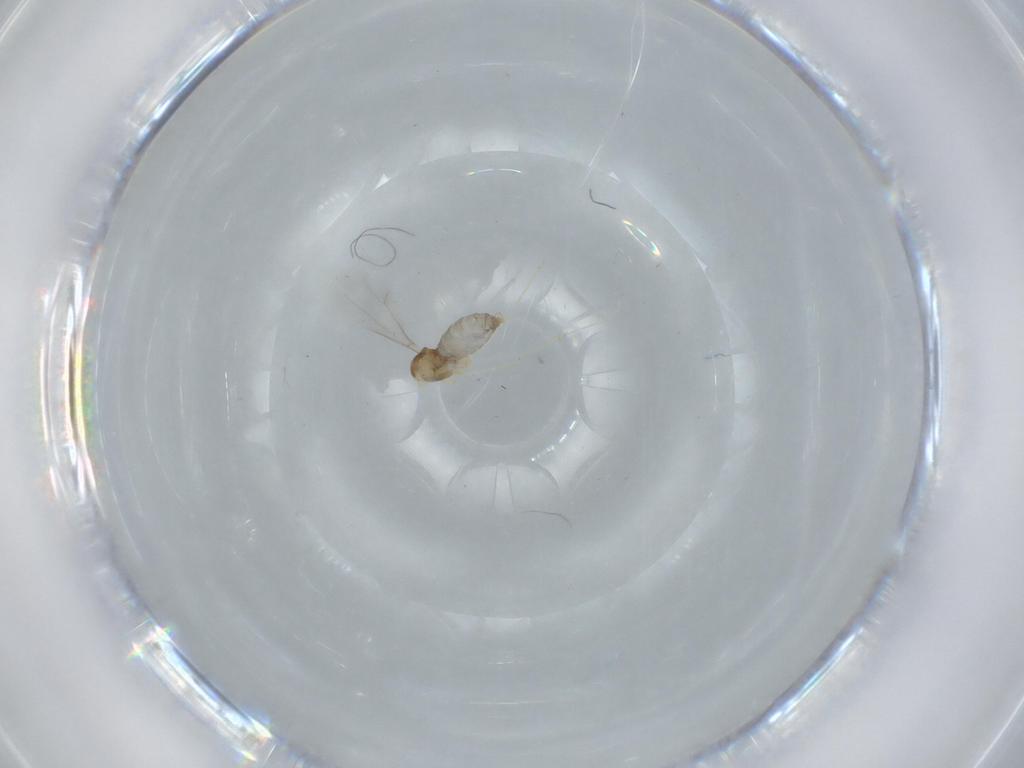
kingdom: Animalia
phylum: Arthropoda
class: Insecta
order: Diptera
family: Cecidomyiidae
